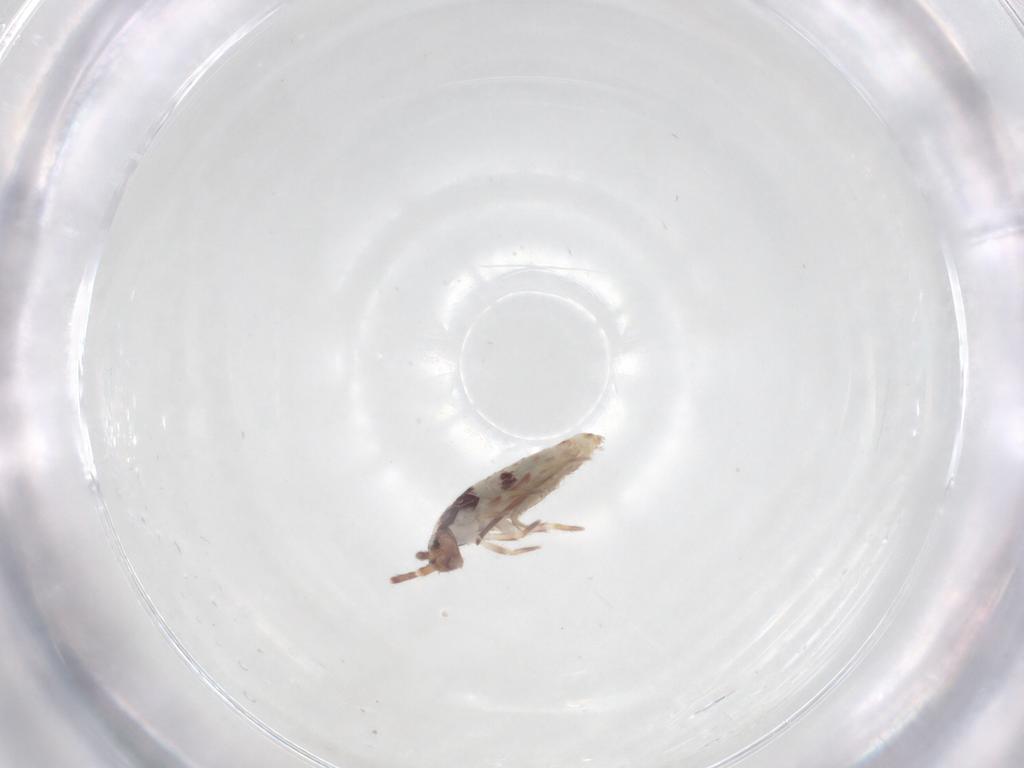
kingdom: Animalia
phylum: Arthropoda
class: Collembola
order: Entomobryomorpha
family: Entomobryidae
